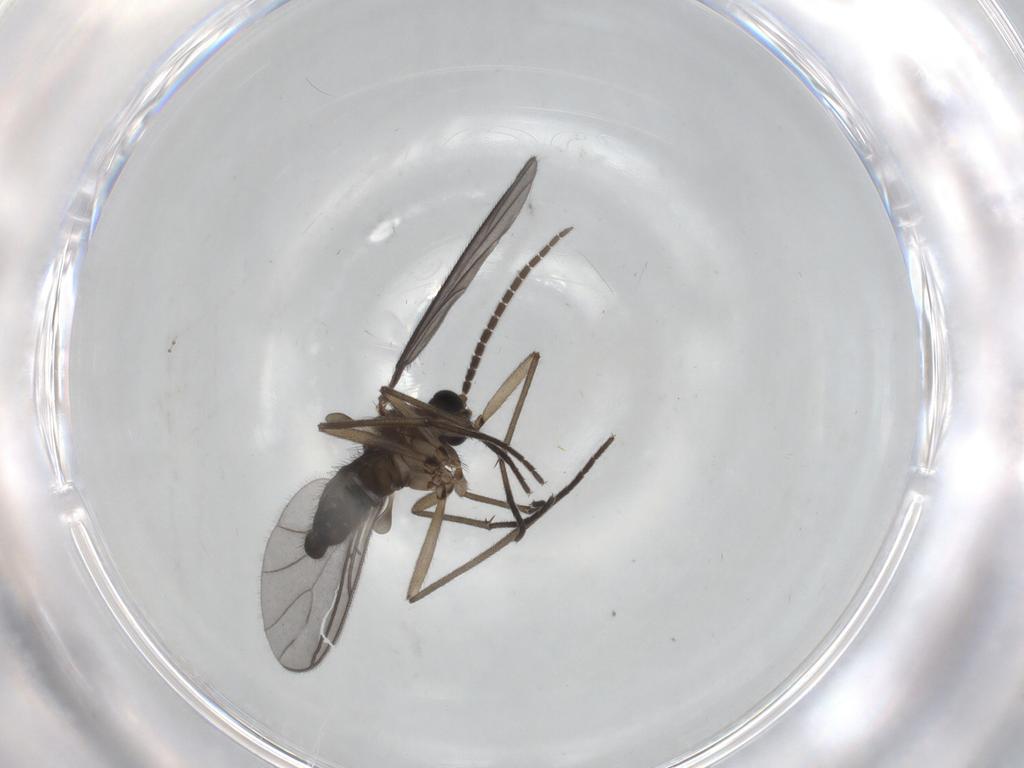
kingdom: Animalia
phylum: Arthropoda
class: Insecta
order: Diptera
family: Sciaridae
